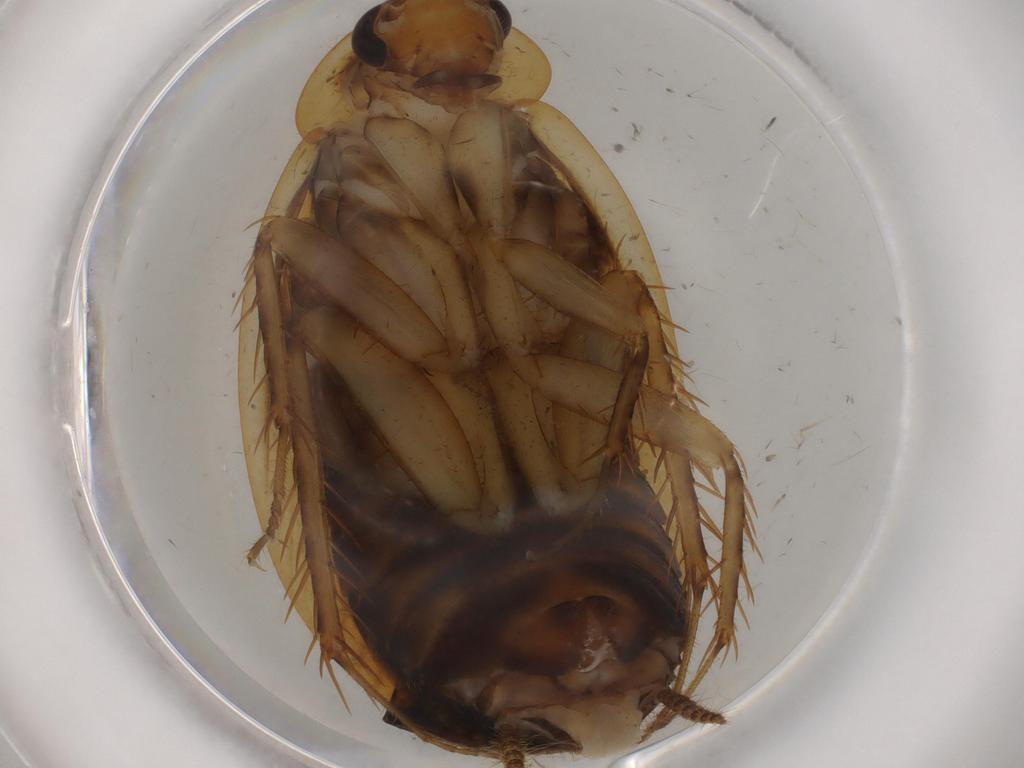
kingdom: Animalia
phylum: Arthropoda
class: Insecta
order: Blattodea
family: Ectobiidae
